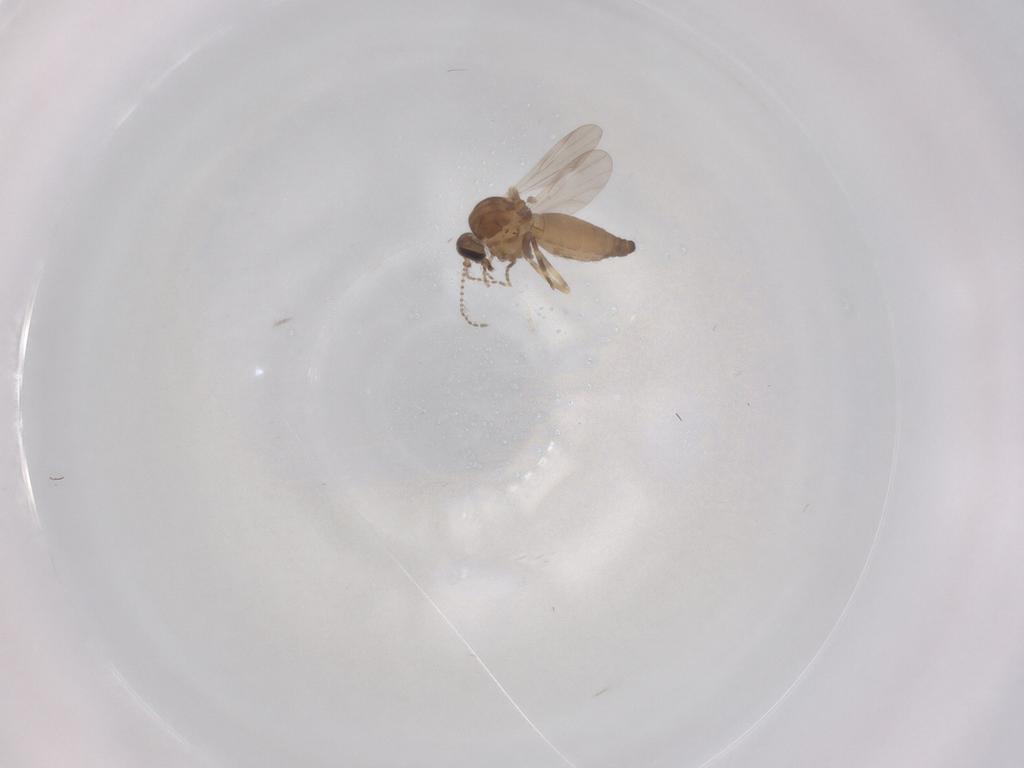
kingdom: Animalia
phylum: Arthropoda
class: Insecta
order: Diptera
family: Ceratopogonidae
